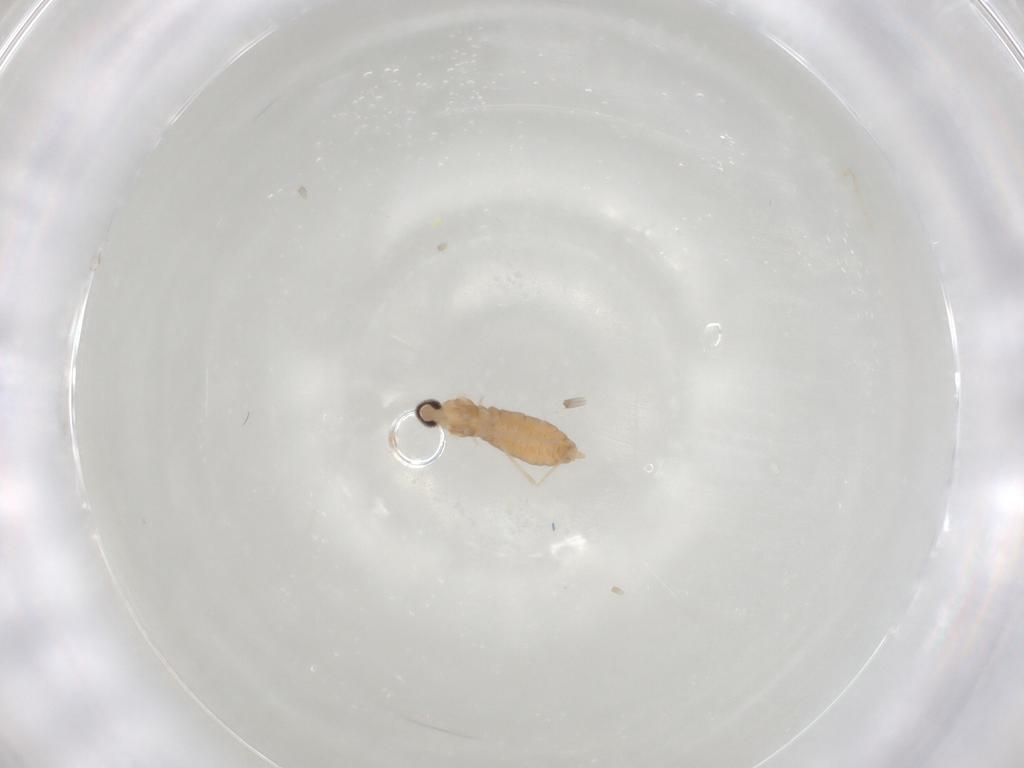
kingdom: Animalia
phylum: Arthropoda
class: Insecta
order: Diptera
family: Cecidomyiidae
